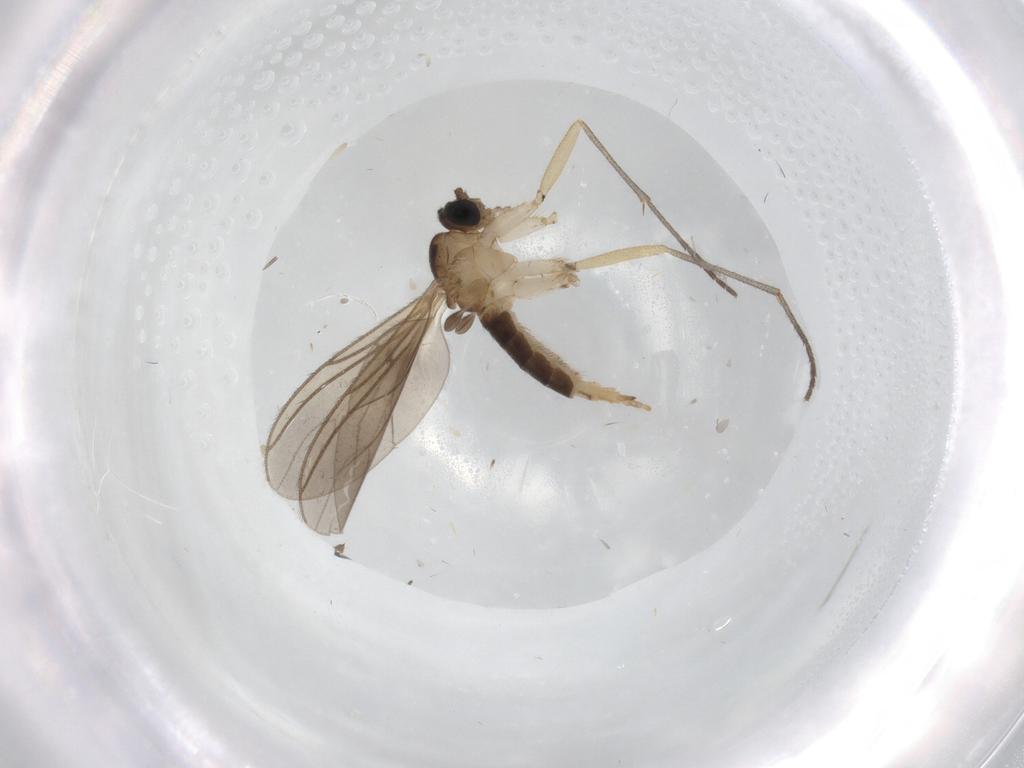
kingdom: Animalia
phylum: Arthropoda
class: Insecta
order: Diptera
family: Sciaridae
